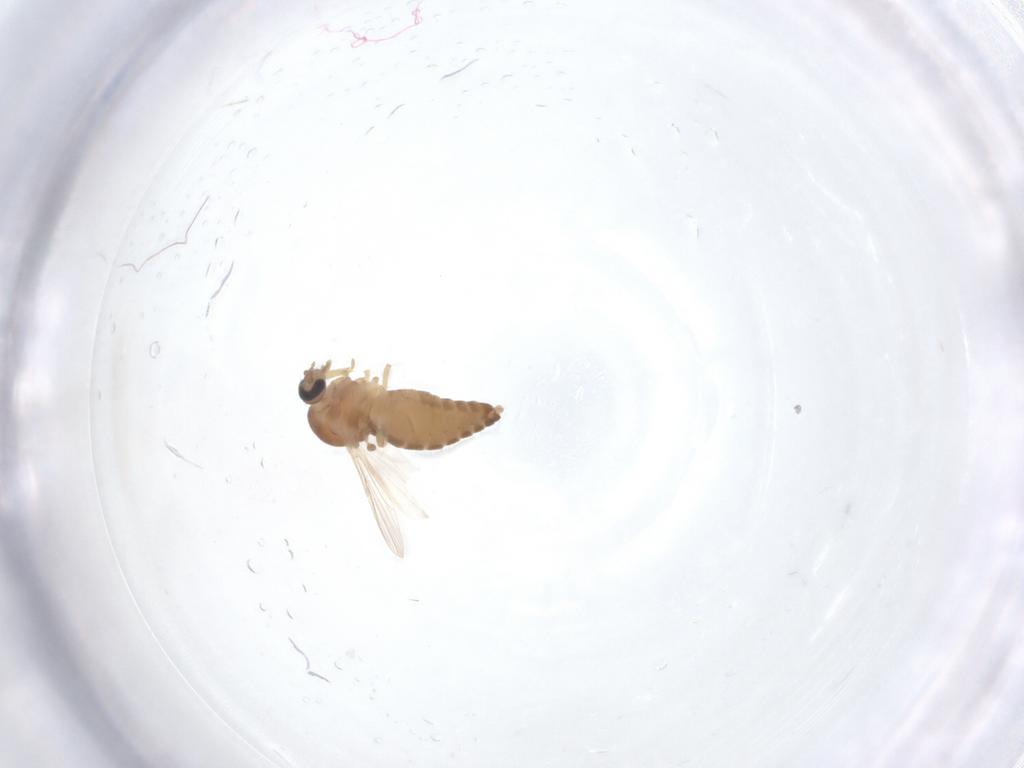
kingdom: Animalia
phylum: Arthropoda
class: Insecta
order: Diptera
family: Ceratopogonidae
